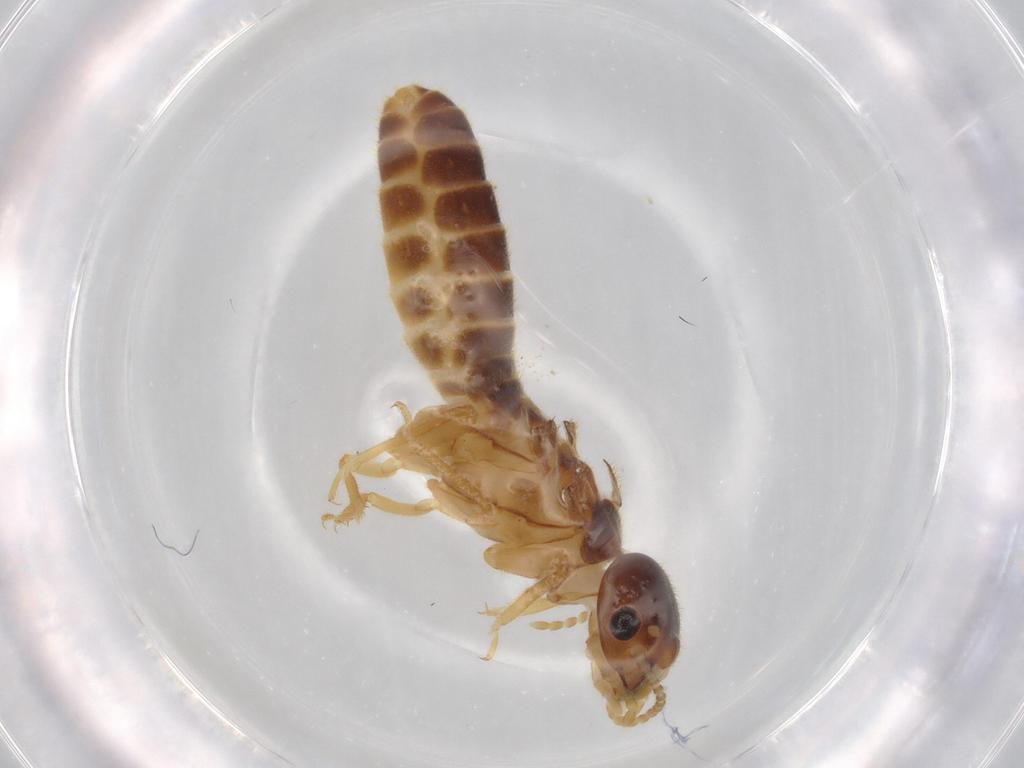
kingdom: Animalia
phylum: Arthropoda
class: Insecta
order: Blattodea
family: Termitidae
